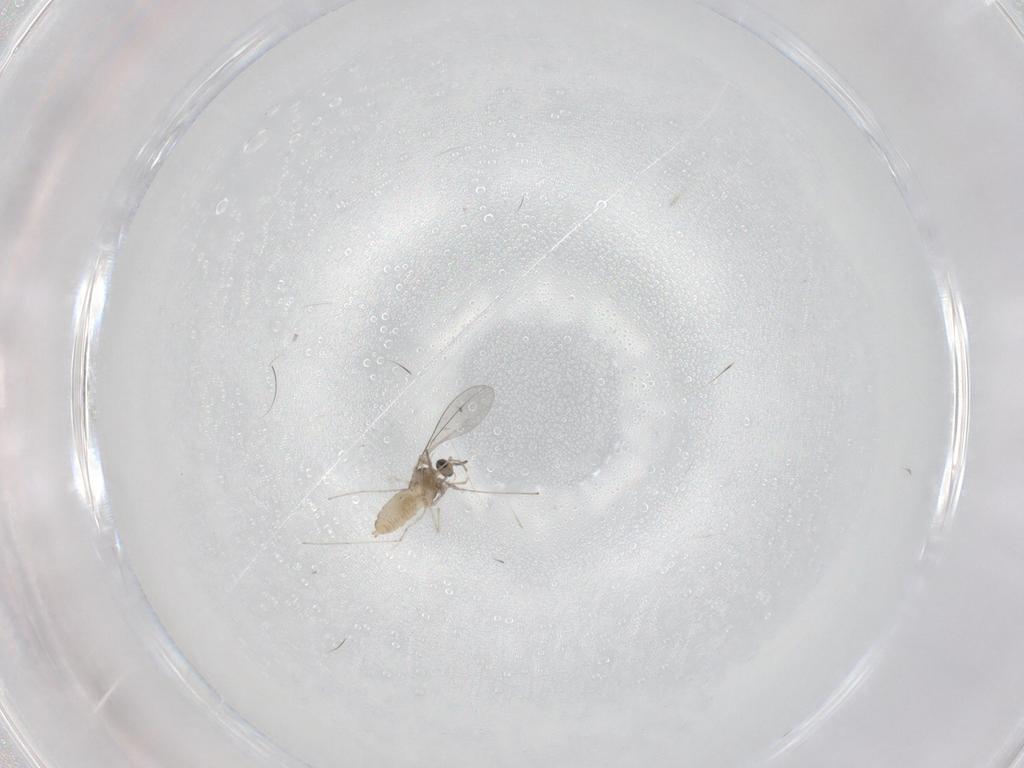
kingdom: Animalia
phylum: Arthropoda
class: Insecta
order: Diptera
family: Cecidomyiidae
